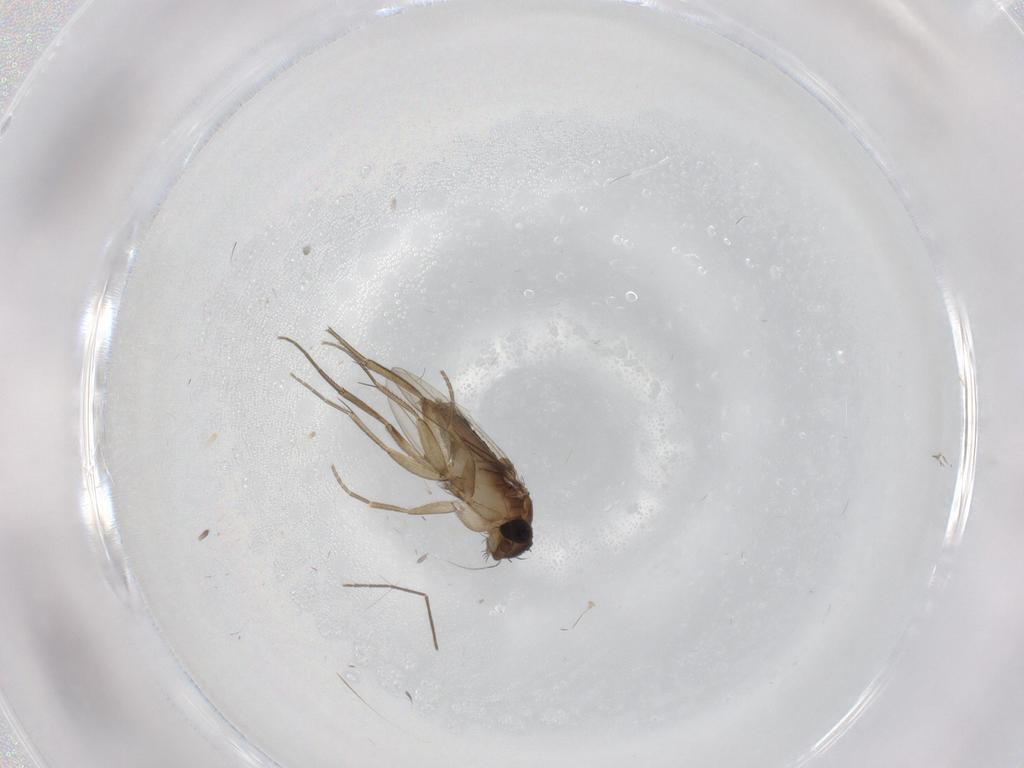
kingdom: Animalia
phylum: Arthropoda
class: Insecta
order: Diptera
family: Phoridae
